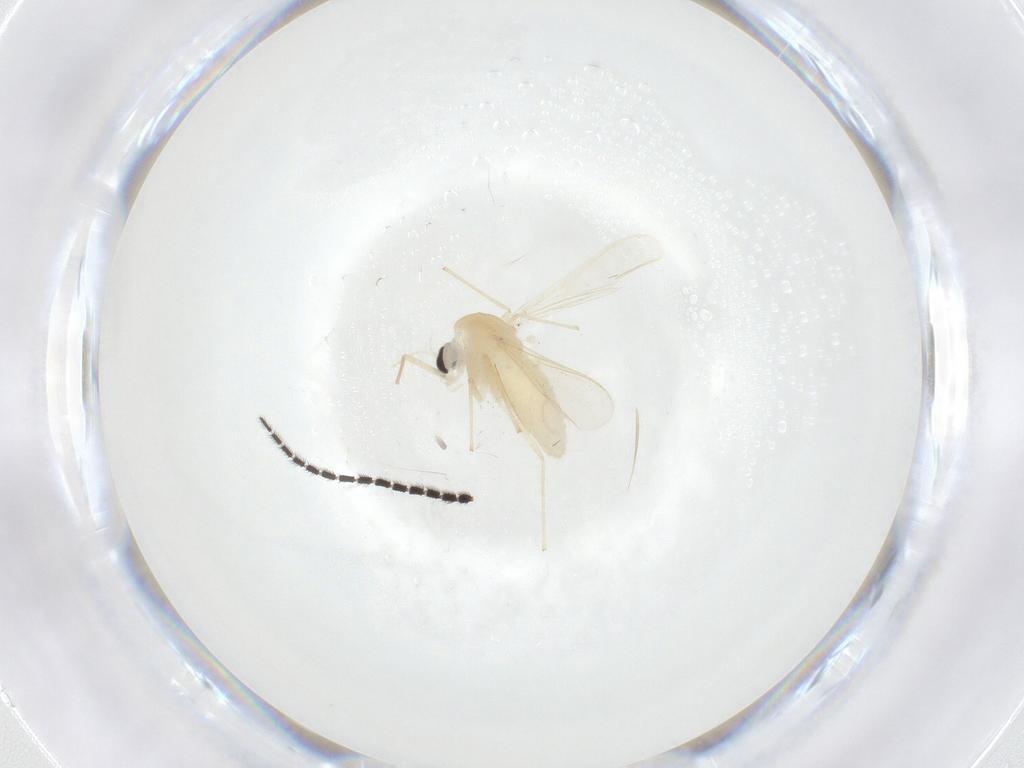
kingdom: Animalia
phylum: Arthropoda
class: Insecta
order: Diptera
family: Chironomidae
